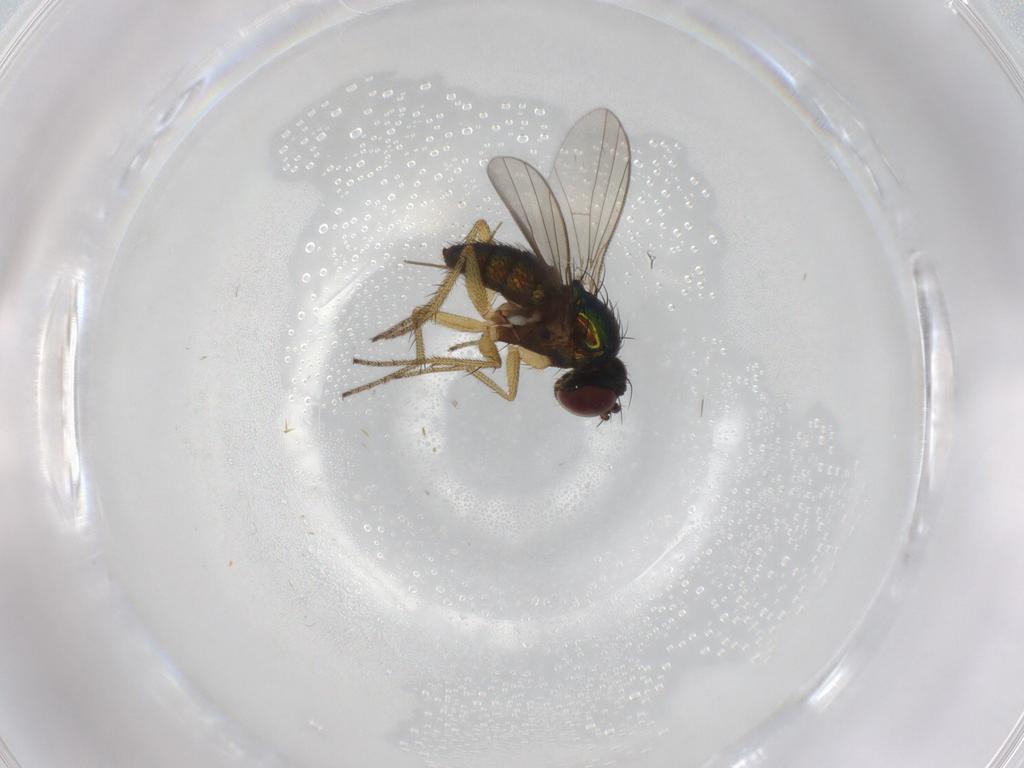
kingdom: Animalia
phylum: Arthropoda
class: Insecta
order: Diptera
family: Dolichopodidae
